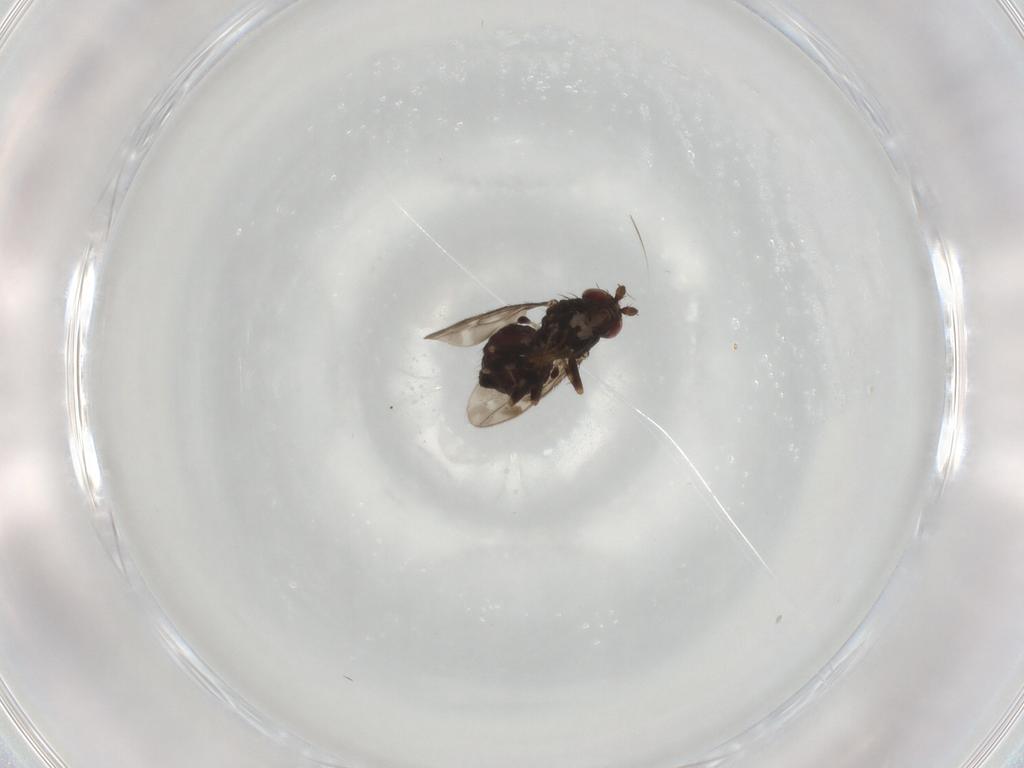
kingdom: Animalia
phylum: Arthropoda
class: Insecta
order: Diptera
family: Sphaeroceridae
